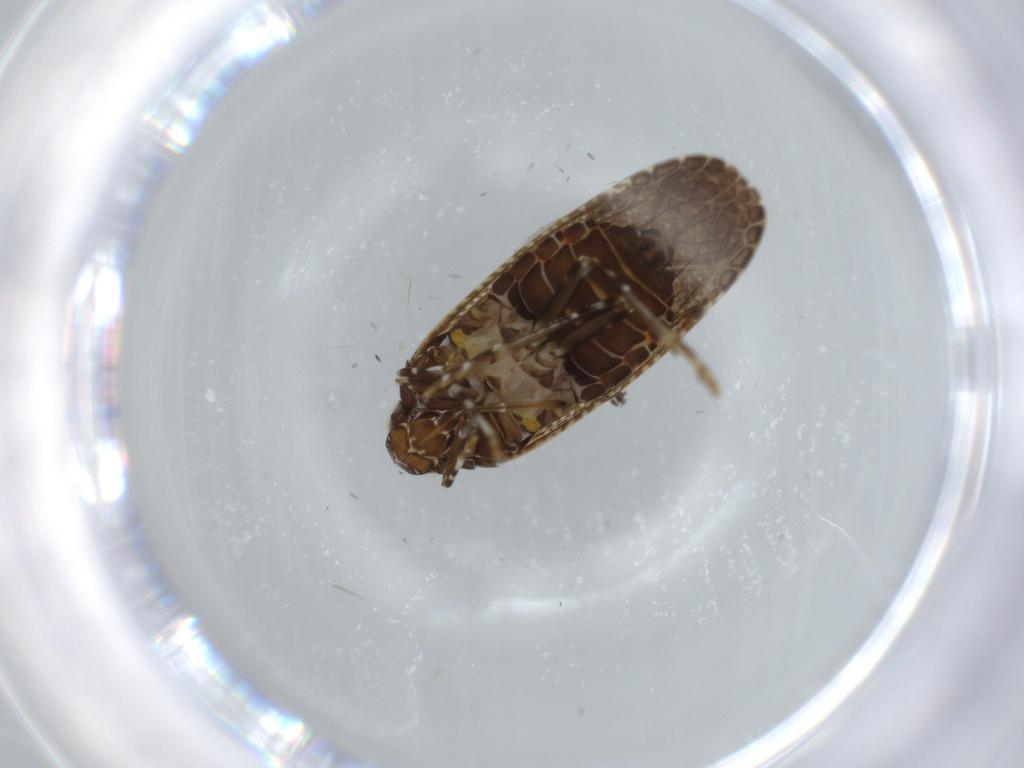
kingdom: Animalia
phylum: Arthropoda
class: Insecta
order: Hemiptera
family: Achilidae
